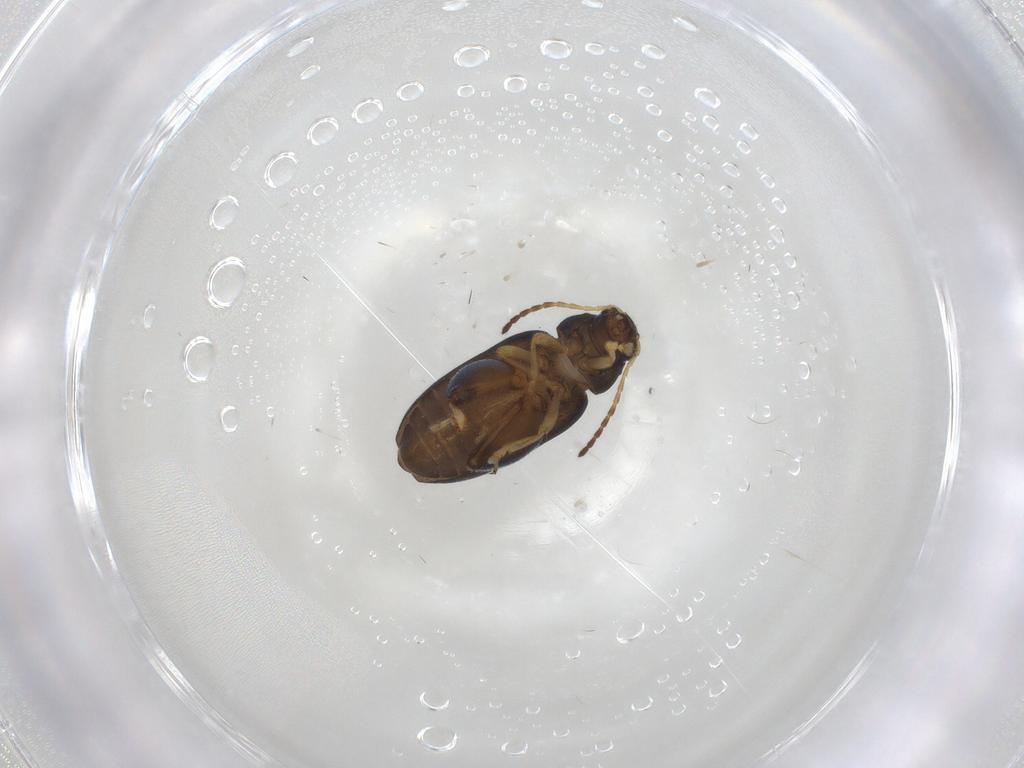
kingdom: Animalia
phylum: Arthropoda
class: Insecta
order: Coleoptera
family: Chrysomelidae
